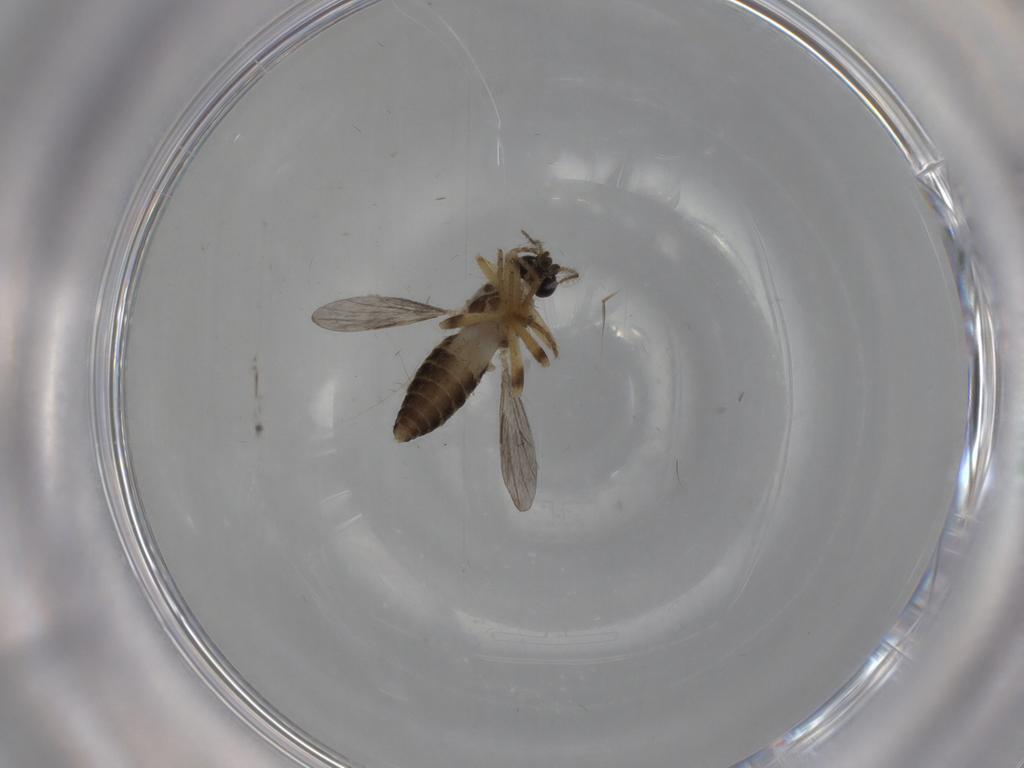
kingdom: Animalia
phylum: Arthropoda
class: Insecta
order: Diptera
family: Ceratopogonidae
